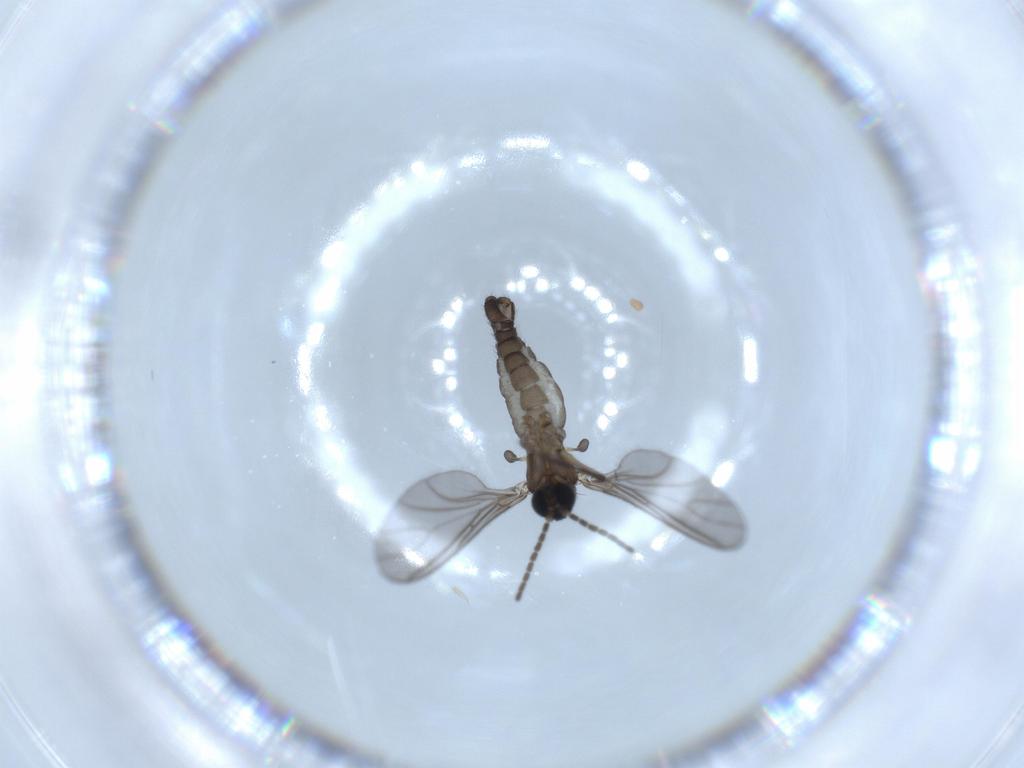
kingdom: Animalia
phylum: Arthropoda
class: Insecta
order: Diptera
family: Sciaridae
